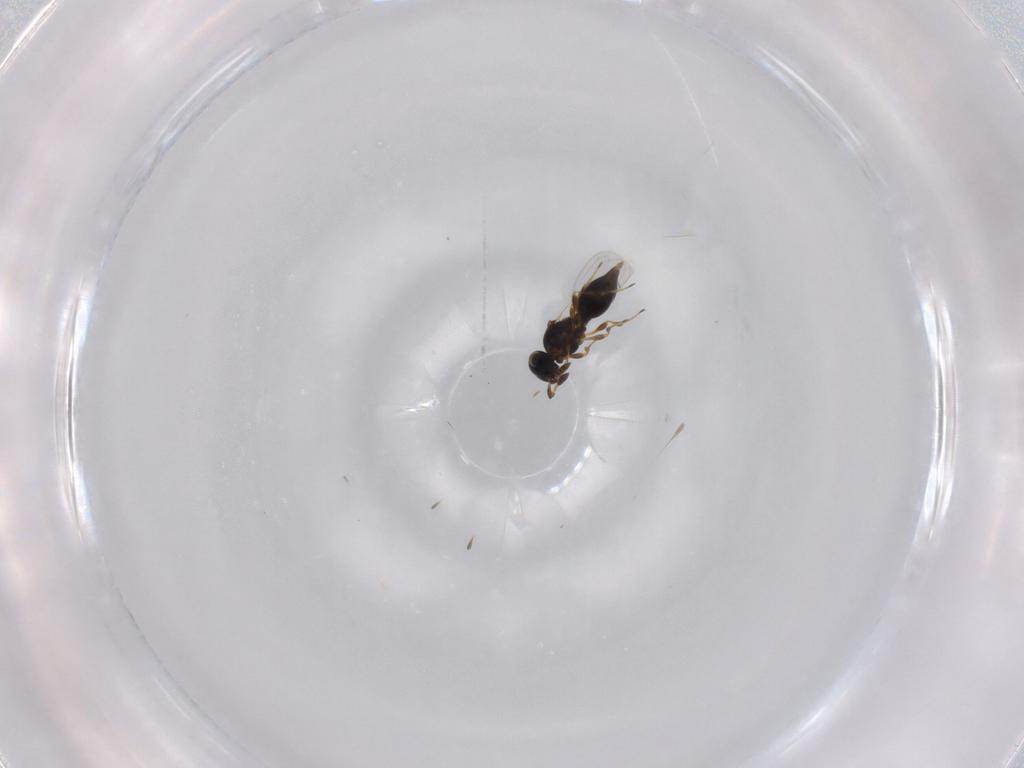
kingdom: Animalia
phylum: Arthropoda
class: Insecta
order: Hymenoptera
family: Platygastridae
